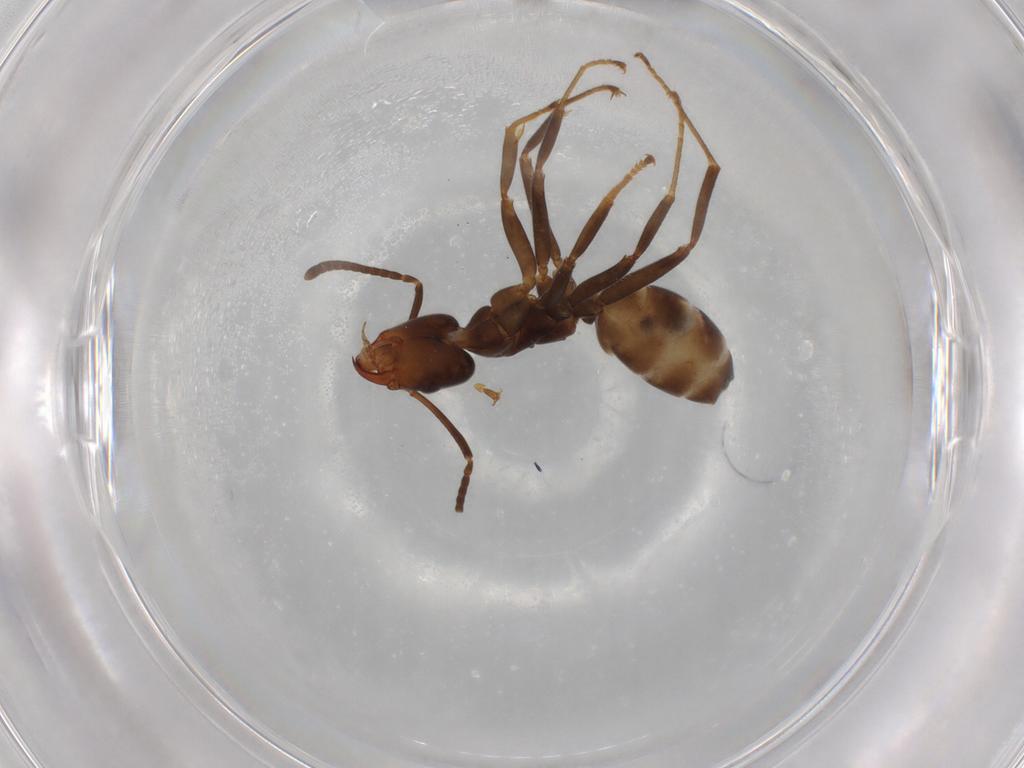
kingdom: Animalia
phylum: Arthropoda
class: Insecta
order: Hymenoptera
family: Formicidae
